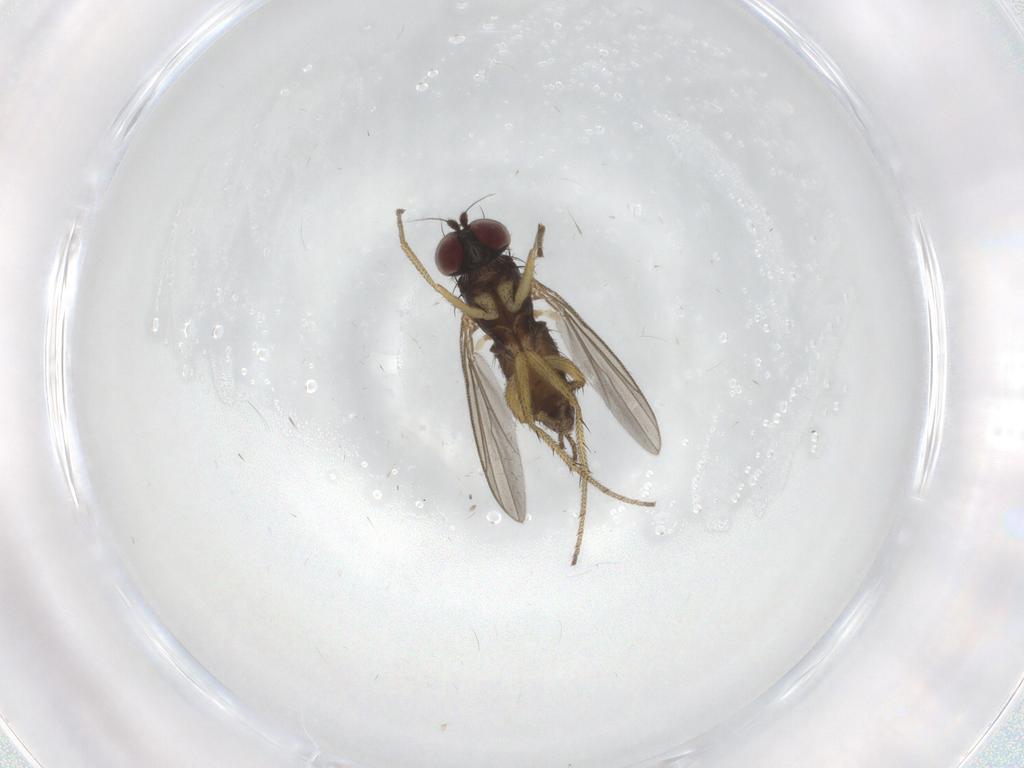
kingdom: Animalia
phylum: Arthropoda
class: Insecta
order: Diptera
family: Dolichopodidae
